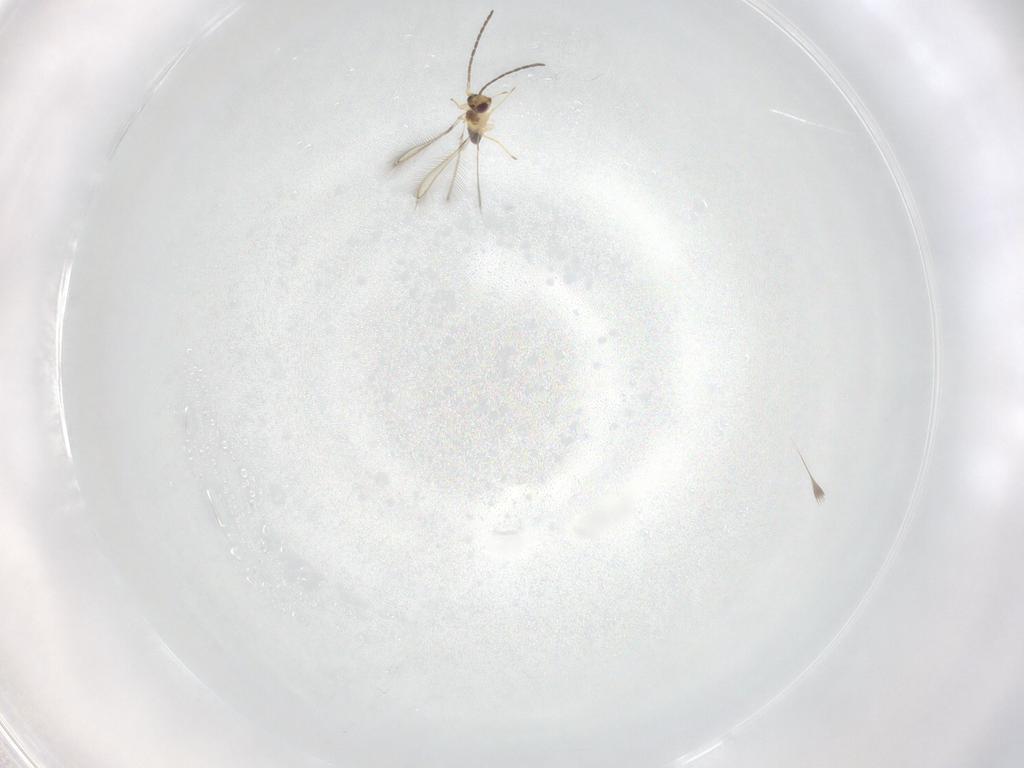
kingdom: Animalia
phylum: Arthropoda
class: Insecta
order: Hymenoptera
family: Mymaridae
